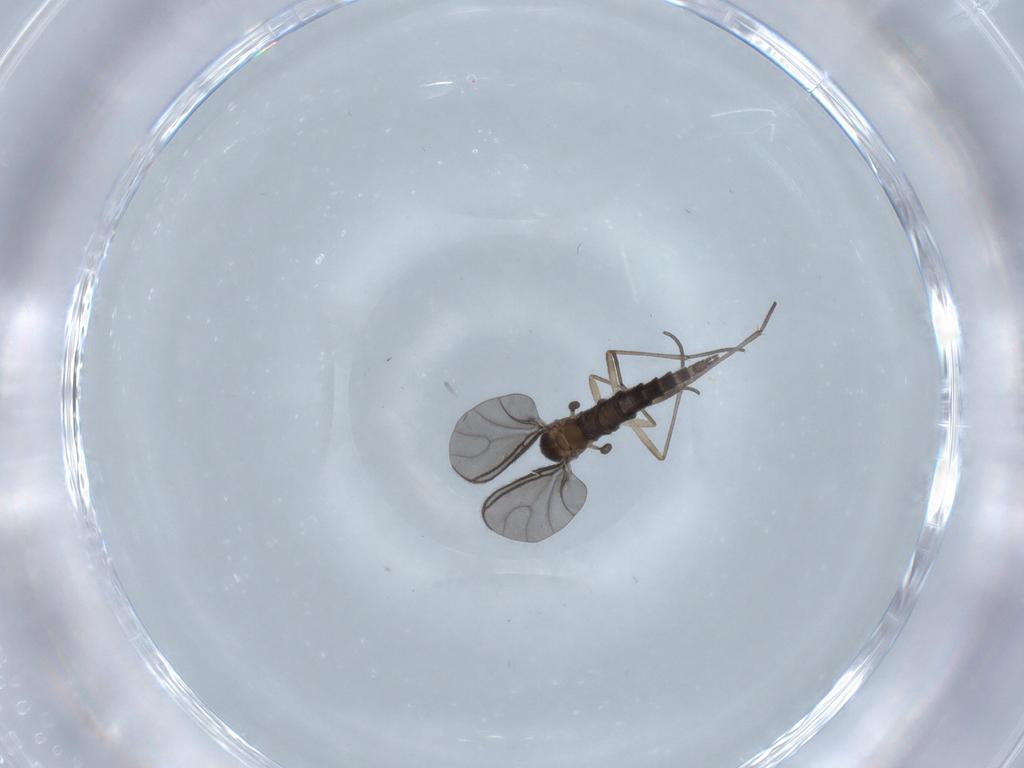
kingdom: Animalia
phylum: Arthropoda
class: Insecta
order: Diptera
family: Sciaridae
